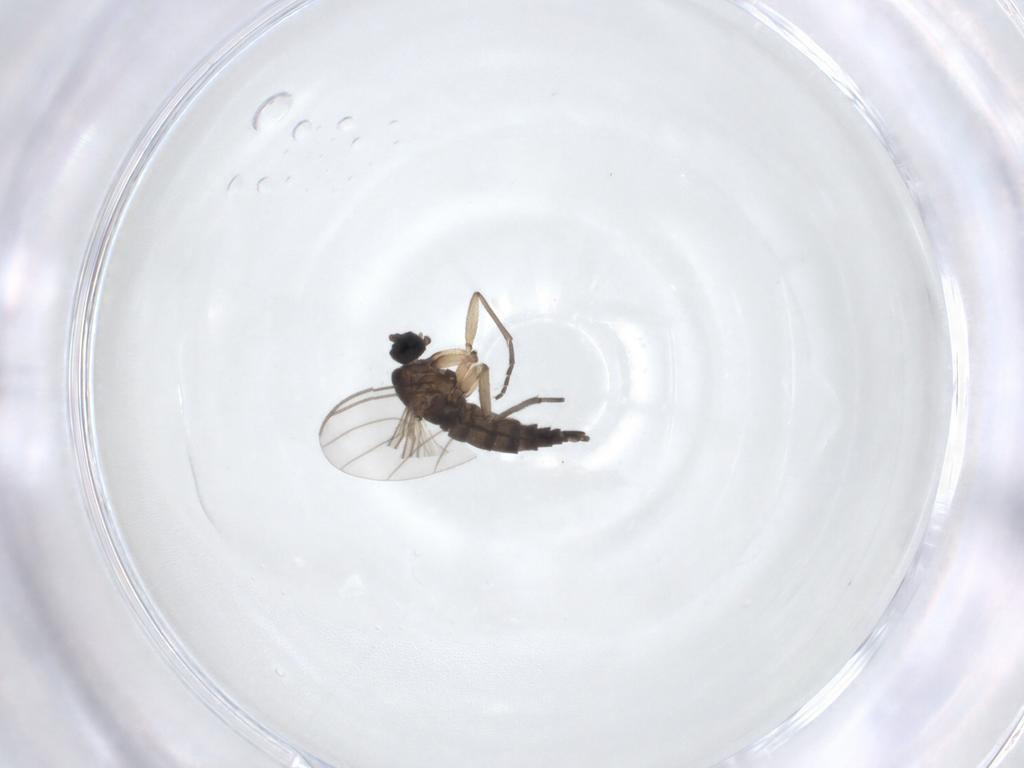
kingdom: Animalia
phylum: Arthropoda
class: Insecta
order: Diptera
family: Sciaridae
